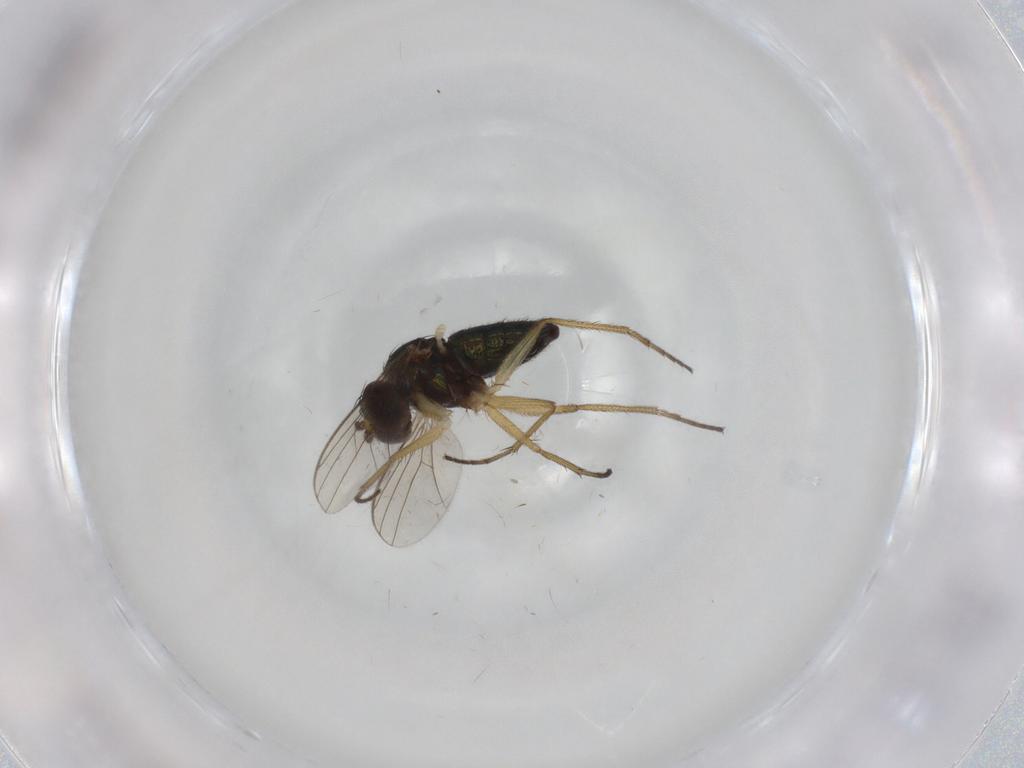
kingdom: Animalia
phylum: Arthropoda
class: Insecta
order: Diptera
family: Dolichopodidae
